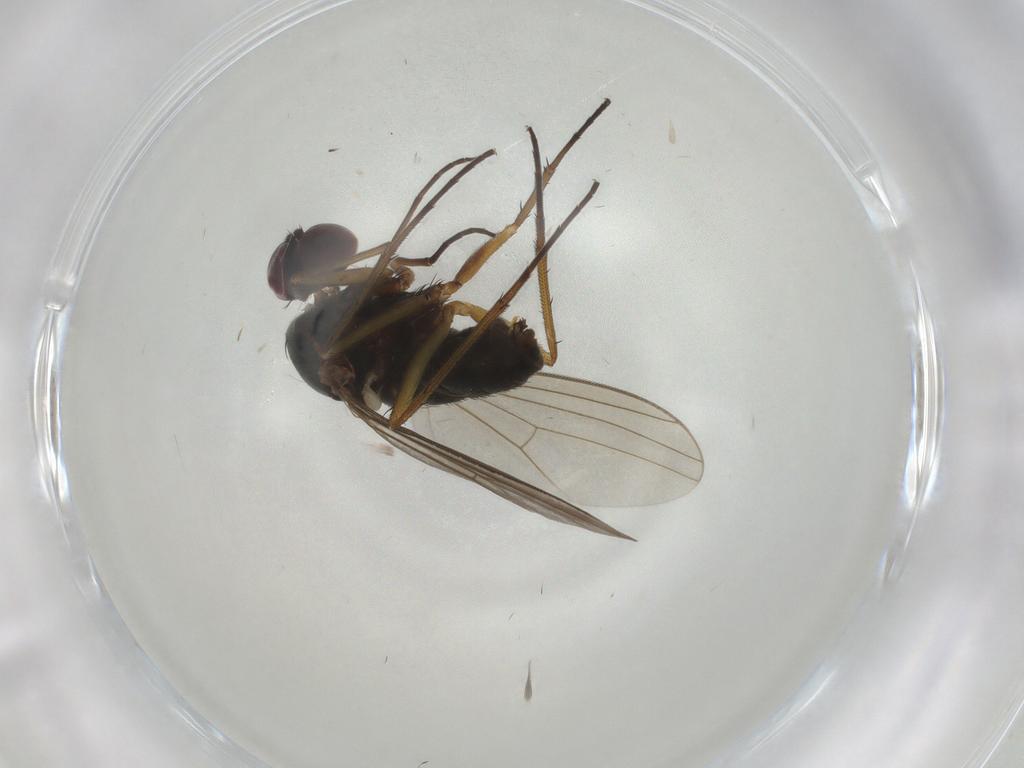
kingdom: Animalia
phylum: Arthropoda
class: Insecta
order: Diptera
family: Dolichopodidae
